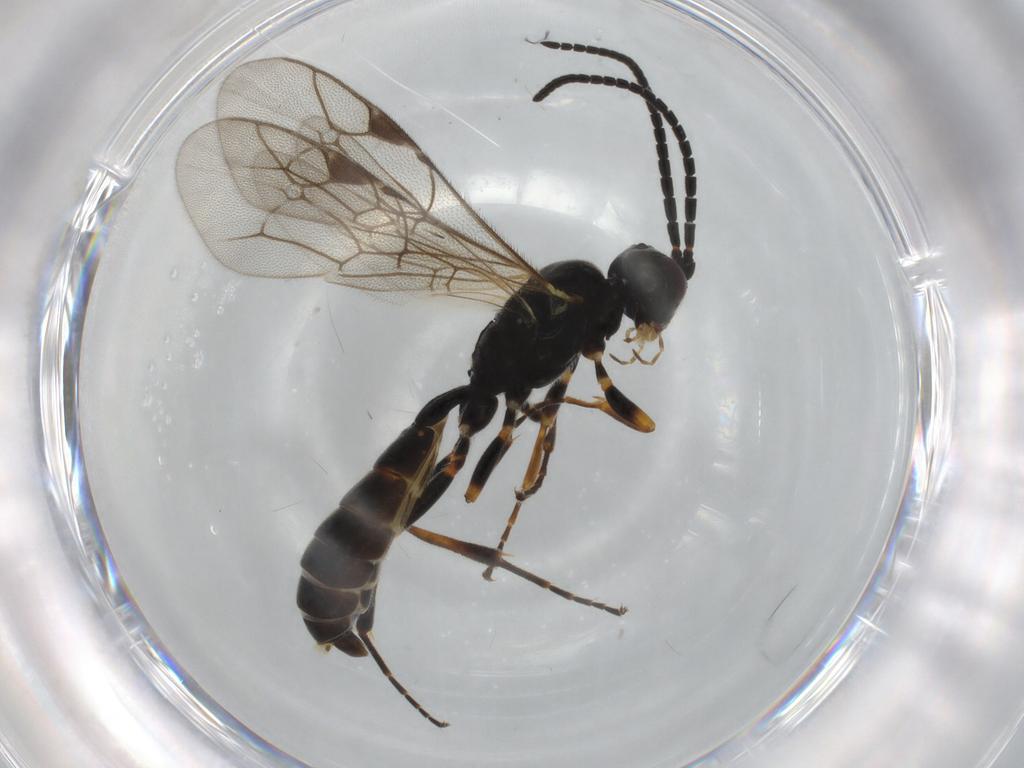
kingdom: Animalia
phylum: Arthropoda
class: Insecta
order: Hymenoptera
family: Ichneumonidae
